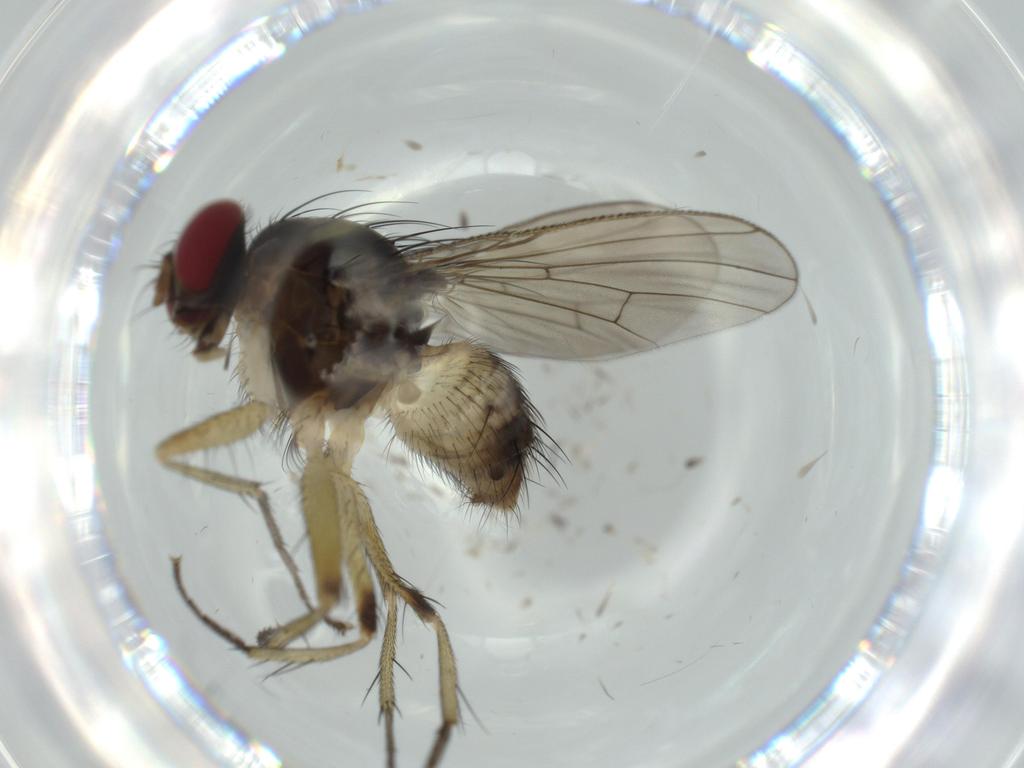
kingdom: Animalia
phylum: Arthropoda
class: Insecta
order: Diptera
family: Ceratopogonidae
